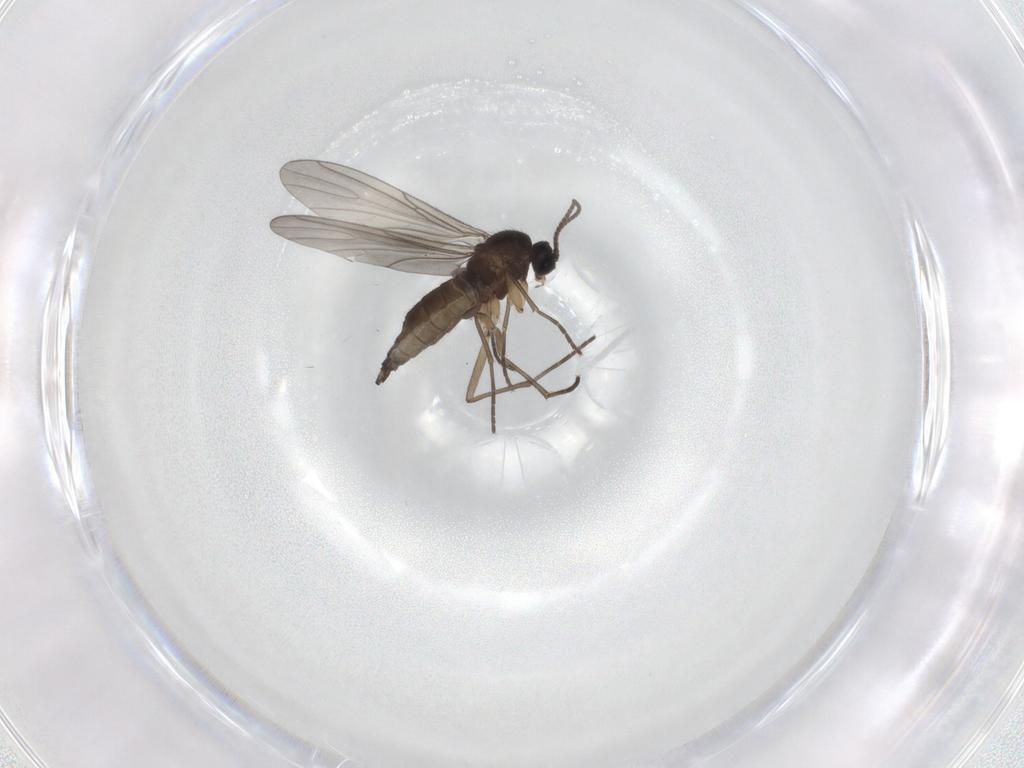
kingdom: Animalia
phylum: Arthropoda
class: Insecta
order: Diptera
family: Sciaridae
